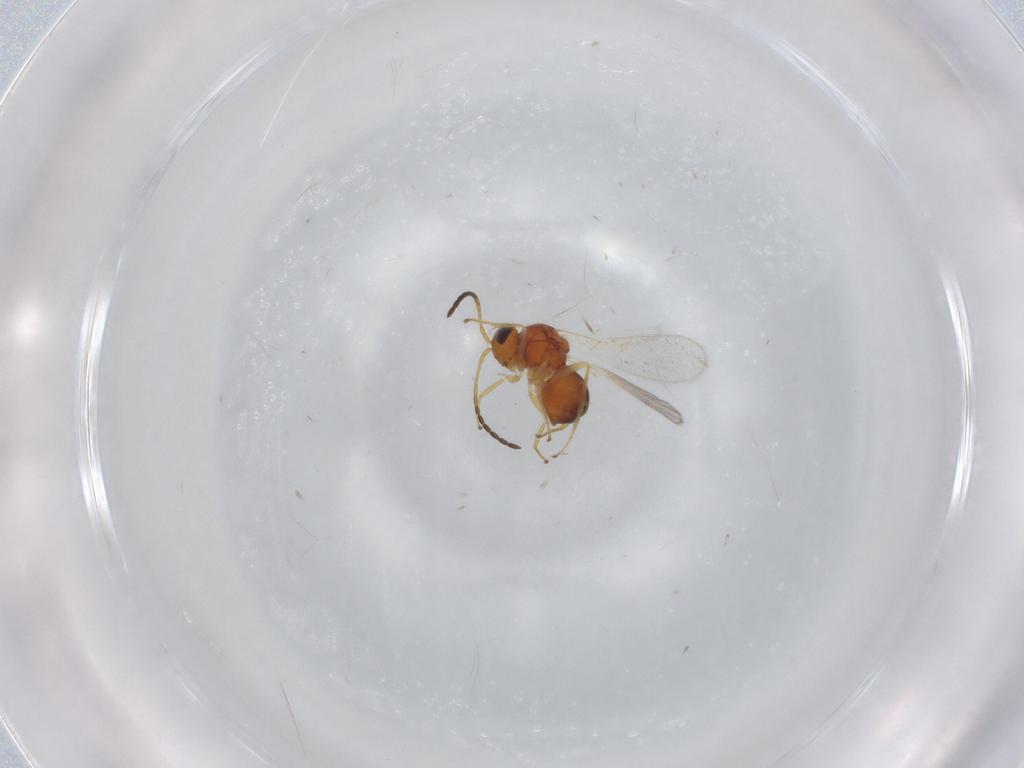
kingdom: Animalia
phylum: Arthropoda
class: Insecta
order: Hymenoptera
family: Figitidae
